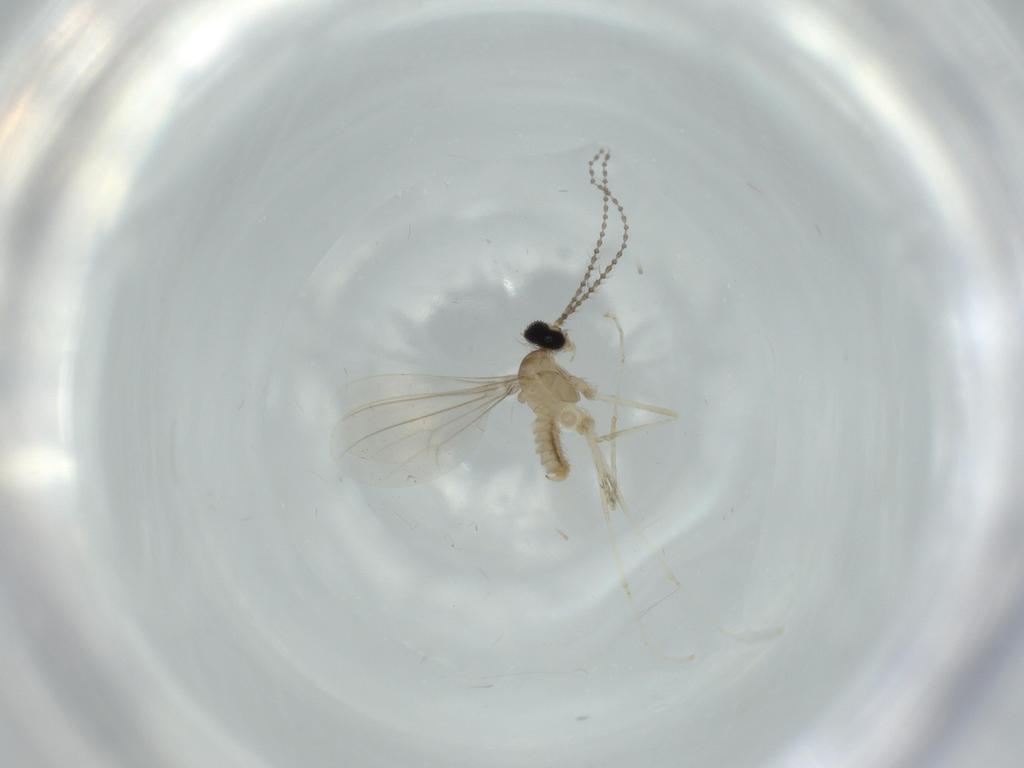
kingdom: Animalia
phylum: Arthropoda
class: Insecta
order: Diptera
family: Cecidomyiidae
